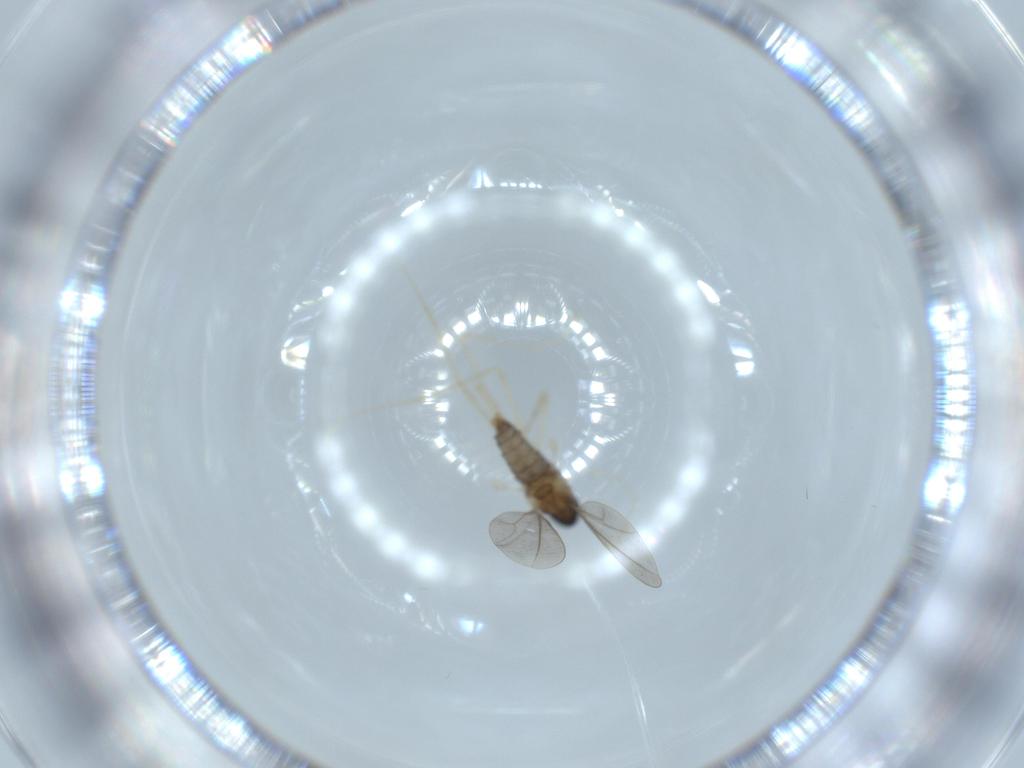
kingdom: Animalia
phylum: Arthropoda
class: Insecta
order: Diptera
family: Cecidomyiidae
